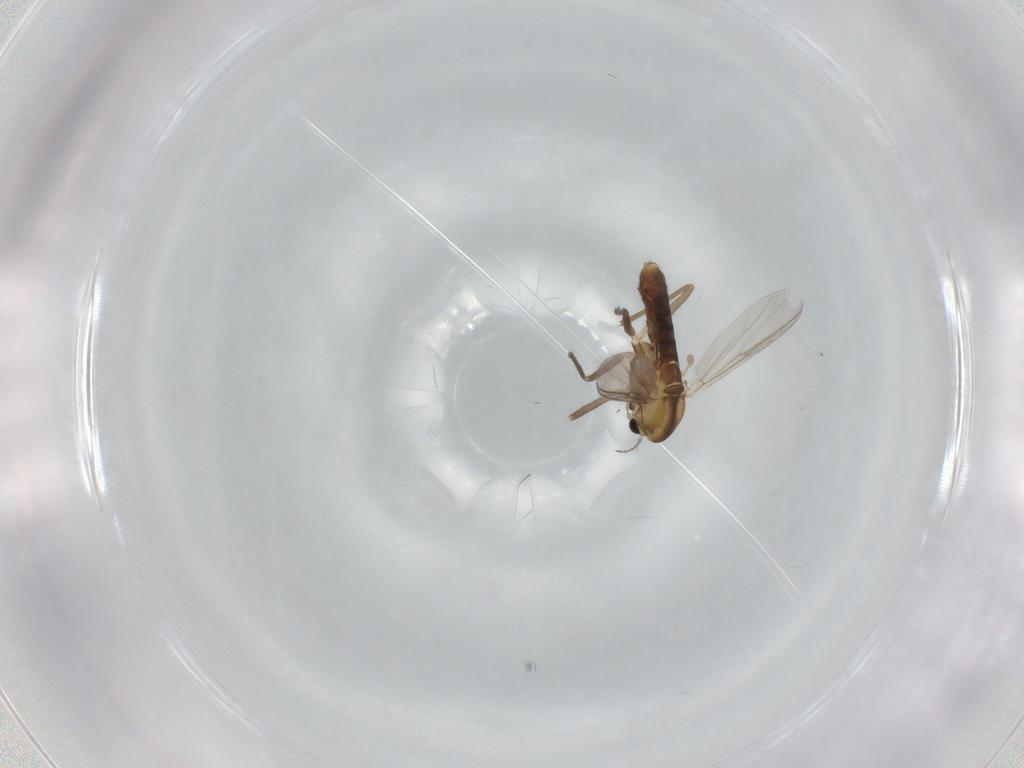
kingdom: Animalia
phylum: Arthropoda
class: Insecta
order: Diptera
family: Chironomidae
